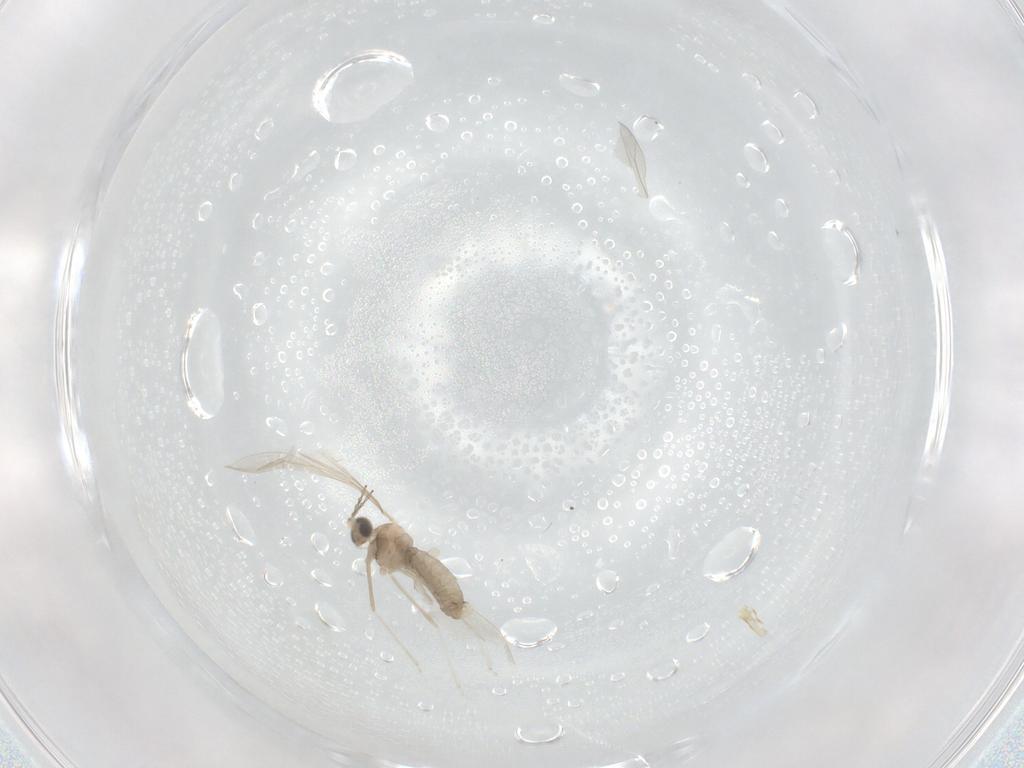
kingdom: Animalia
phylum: Arthropoda
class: Insecta
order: Diptera
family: Cecidomyiidae
